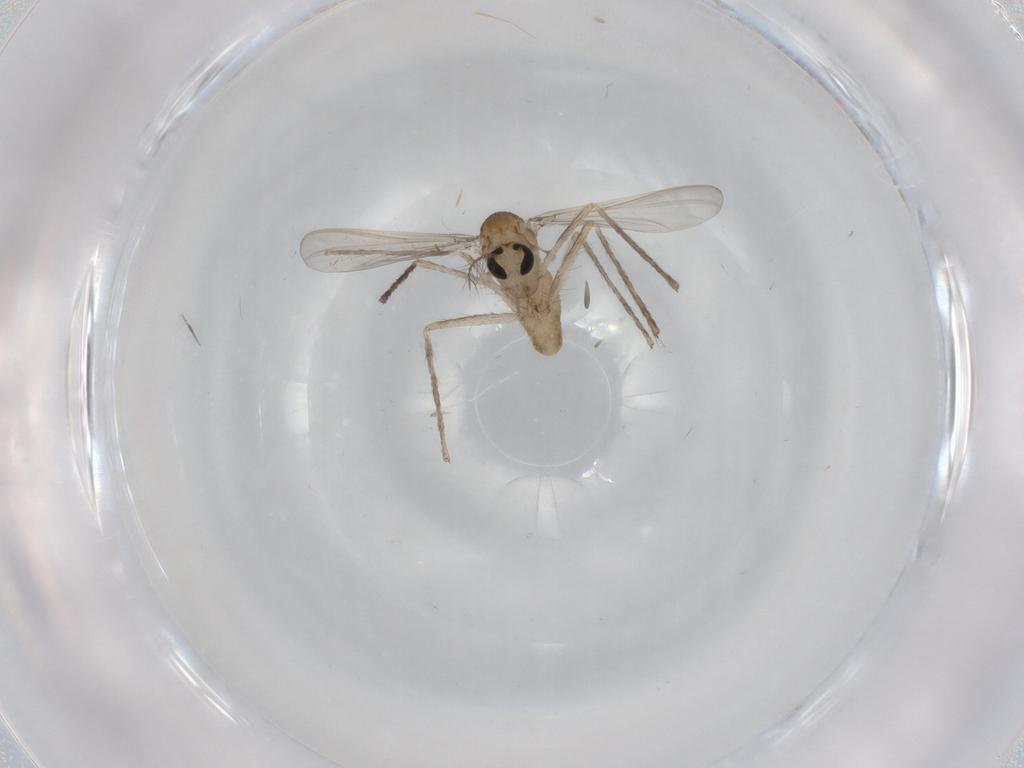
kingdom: Animalia
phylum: Arthropoda
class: Insecta
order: Diptera
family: Chironomidae
